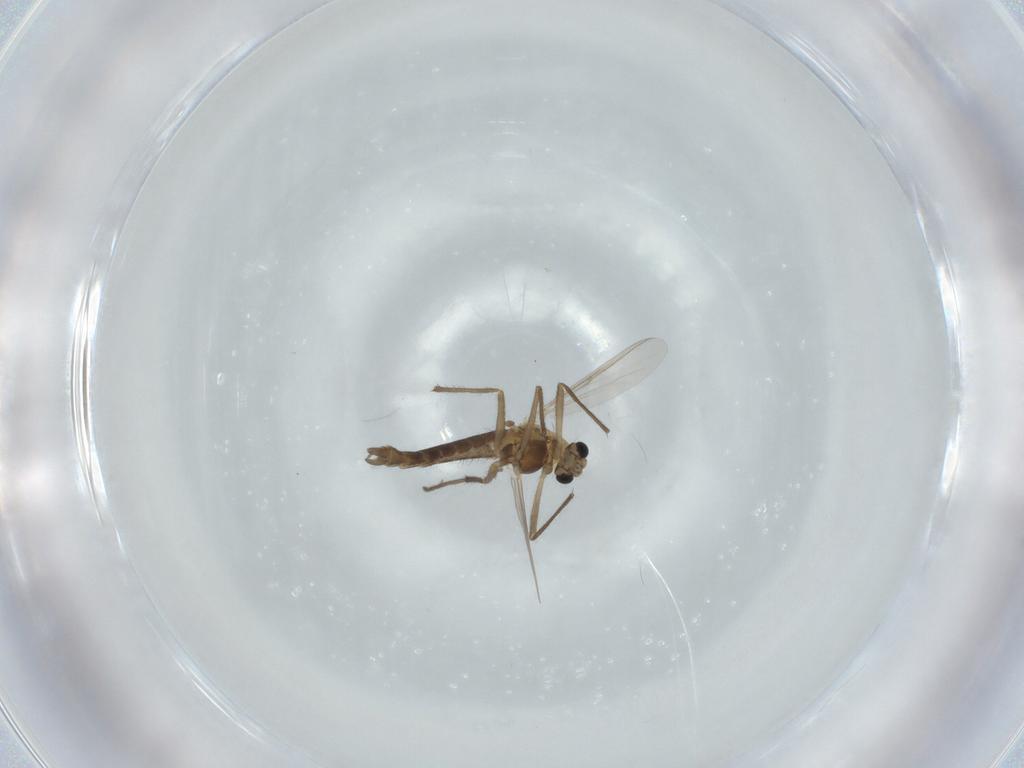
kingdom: Animalia
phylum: Arthropoda
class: Insecta
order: Diptera
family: Chironomidae
